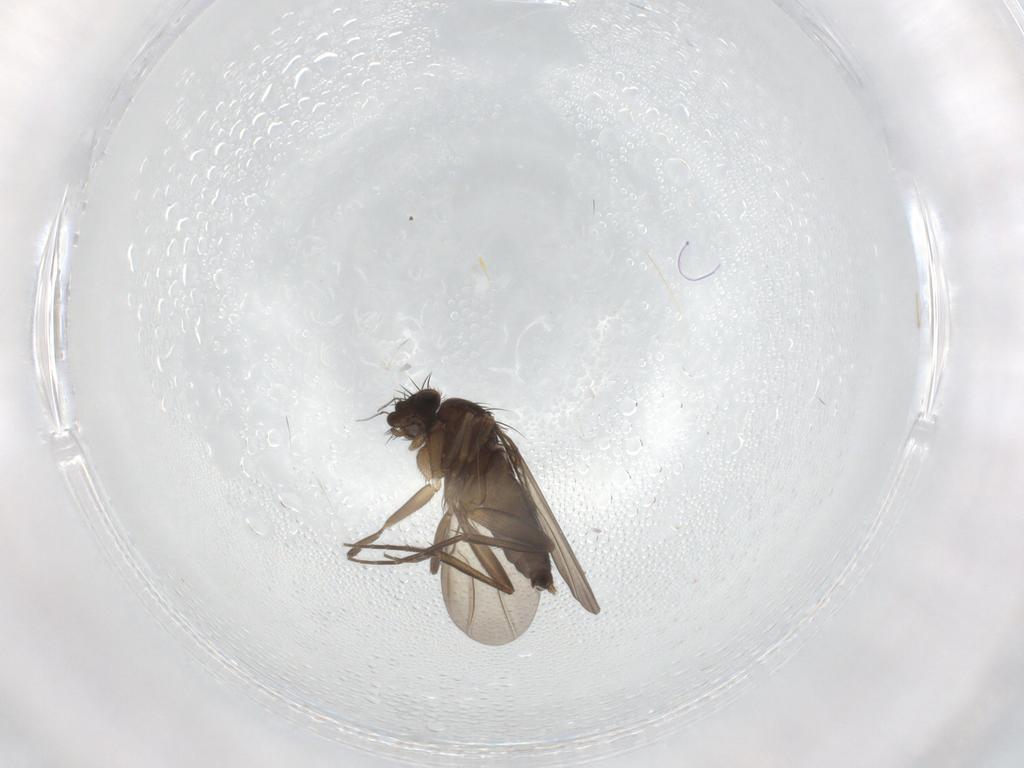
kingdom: Animalia
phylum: Arthropoda
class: Insecta
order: Diptera
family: Phoridae
